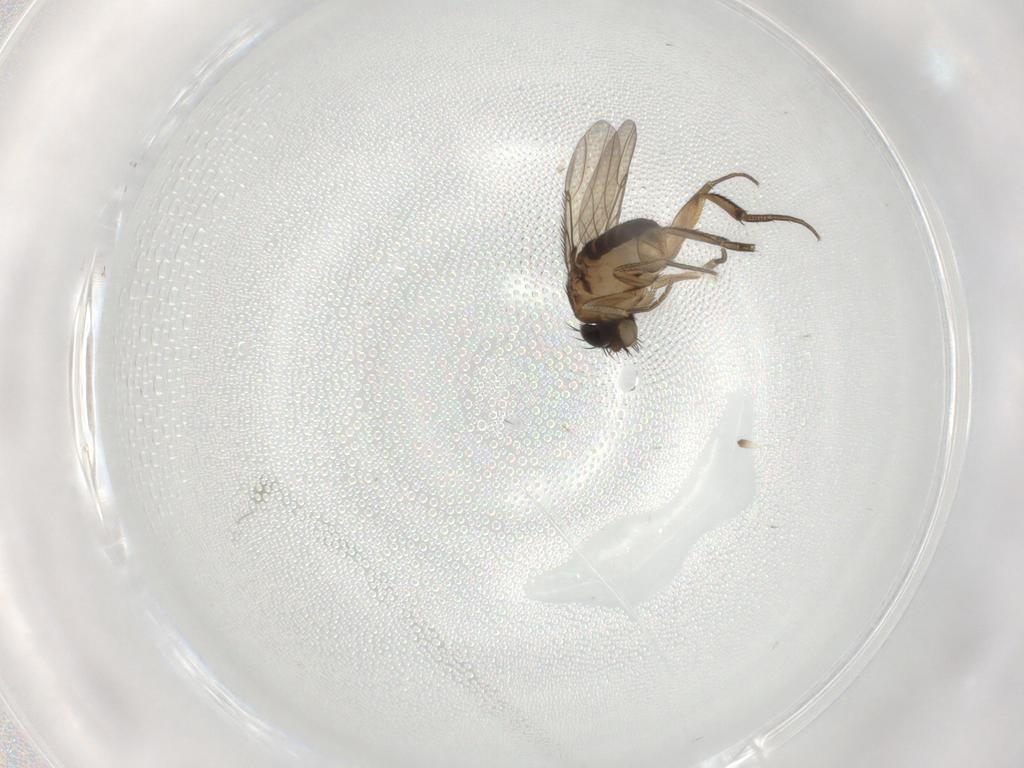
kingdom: Animalia
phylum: Arthropoda
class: Insecta
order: Diptera
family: Phoridae
